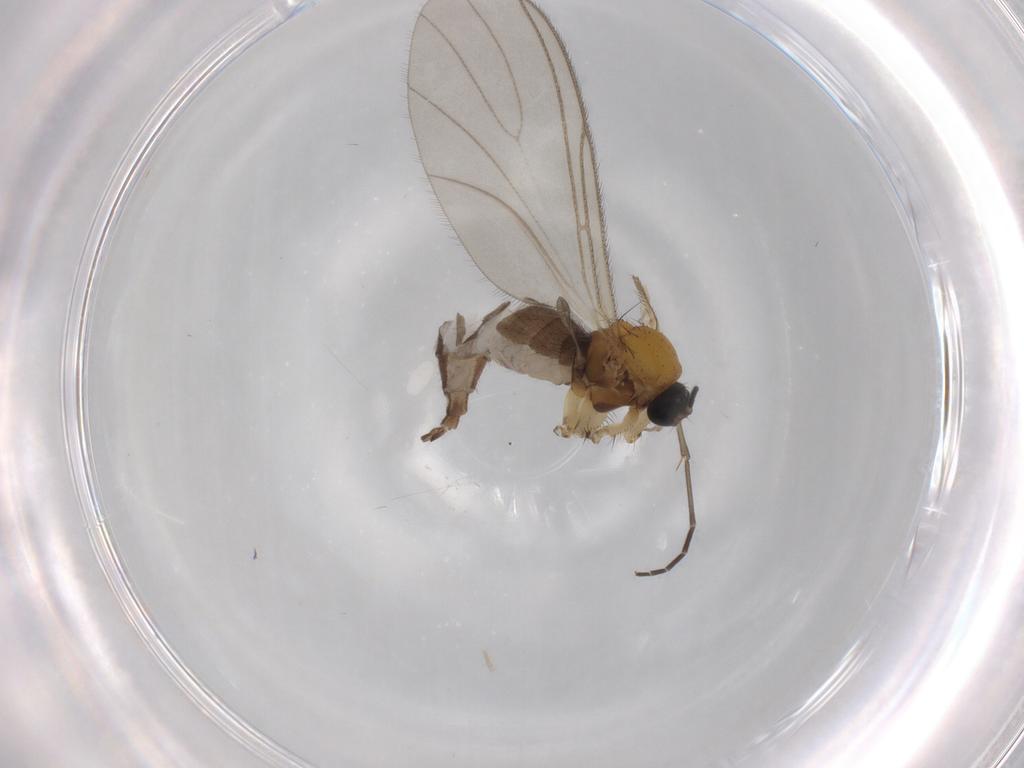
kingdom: Animalia
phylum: Arthropoda
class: Insecta
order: Diptera
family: Sciaridae
